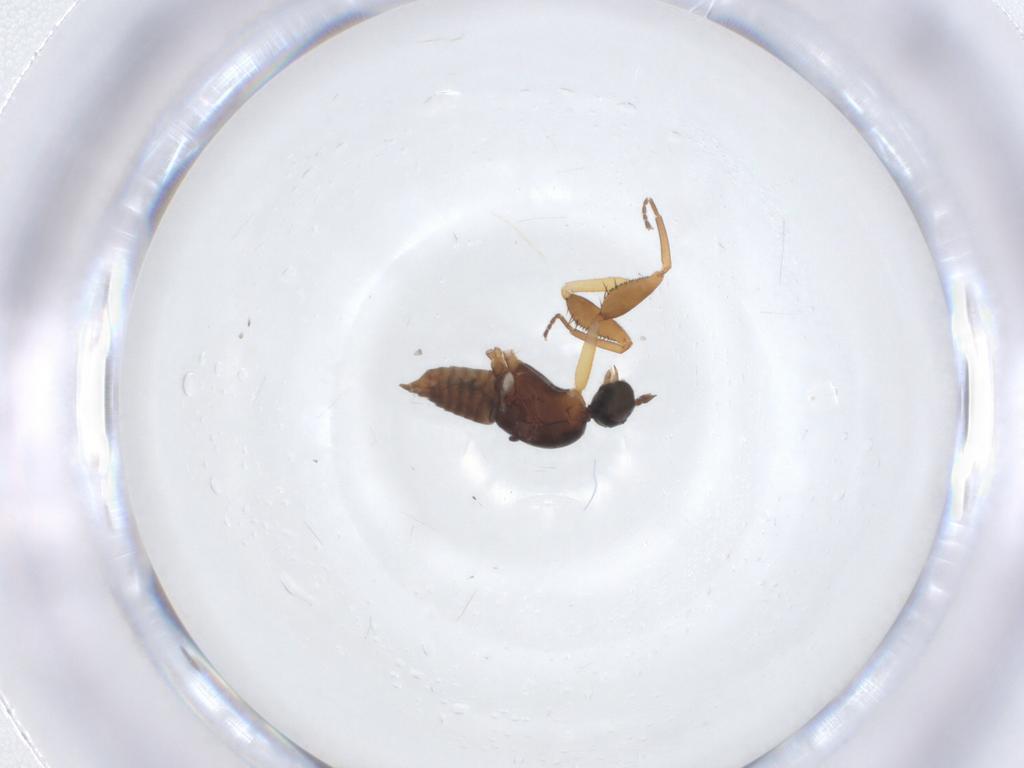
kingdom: Animalia
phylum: Arthropoda
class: Insecta
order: Diptera
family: Empididae
